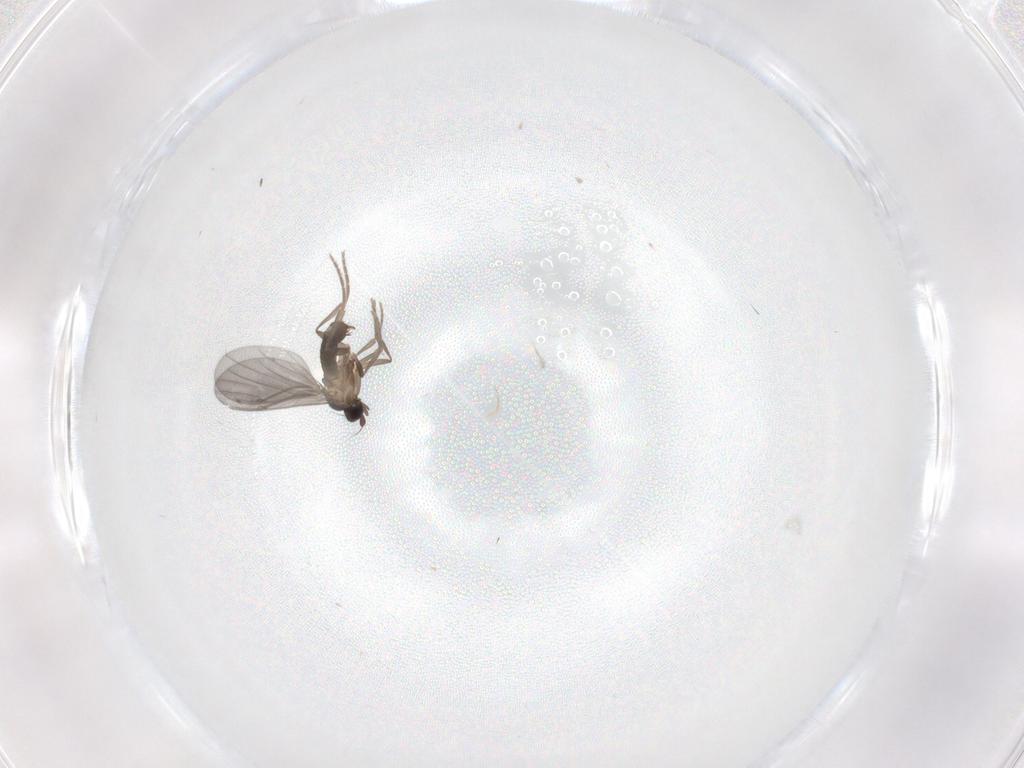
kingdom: Animalia
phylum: Arthropoda
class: Insecta
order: Diptera
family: Phoridae
